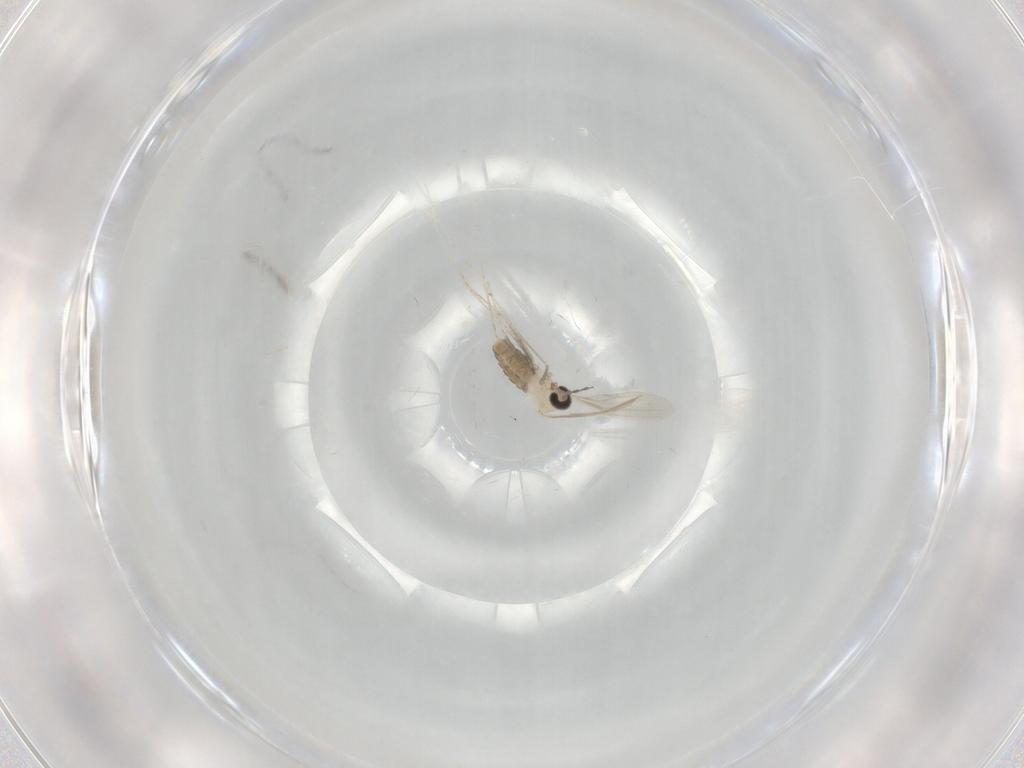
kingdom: Animalia
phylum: Arthropoda
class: Insecta
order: Diptera
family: Cecidomyiidae
